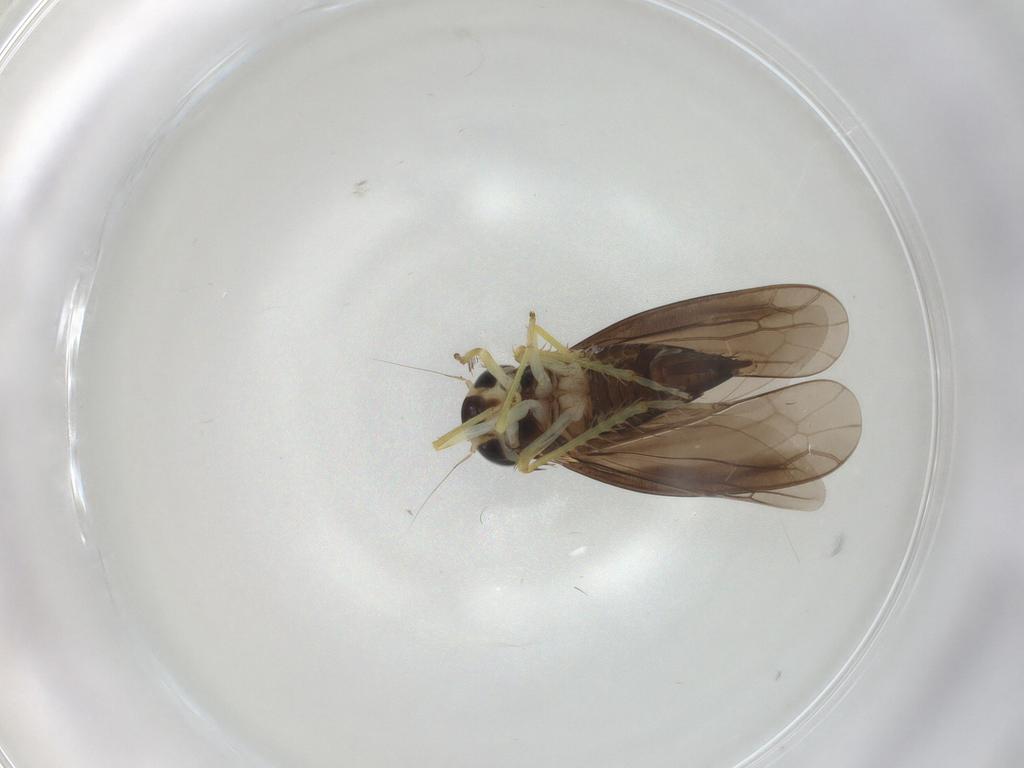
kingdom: Animalia
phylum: Arthropoda
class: Insecta
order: Hemiptera
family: Cicadellidae
